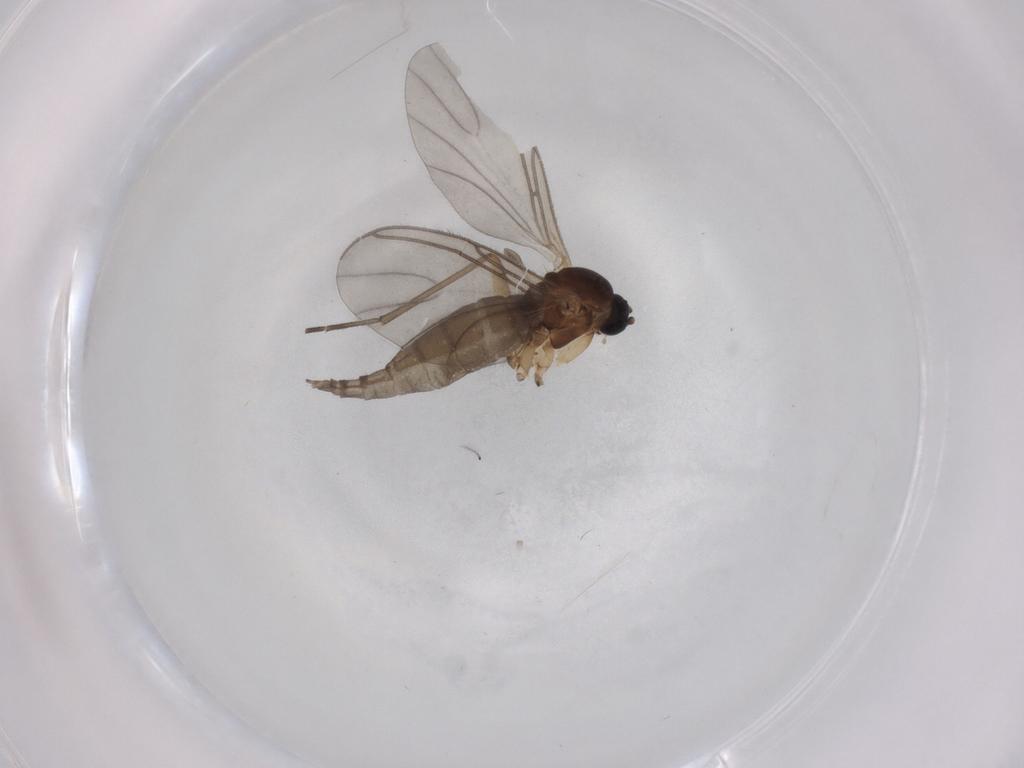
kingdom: Animalia
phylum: Arthropoda
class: Insecta
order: Diptera
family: Sciaridae
